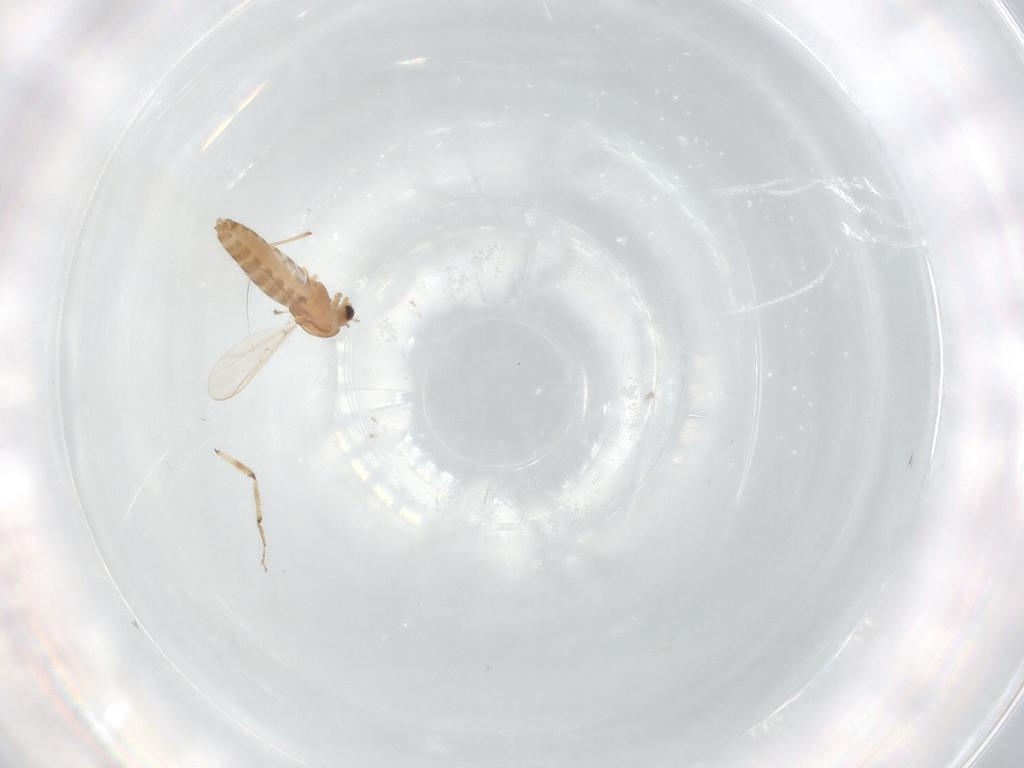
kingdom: Animalia
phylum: Arthropoda
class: Insecta
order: Diptera
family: Chironomidae
